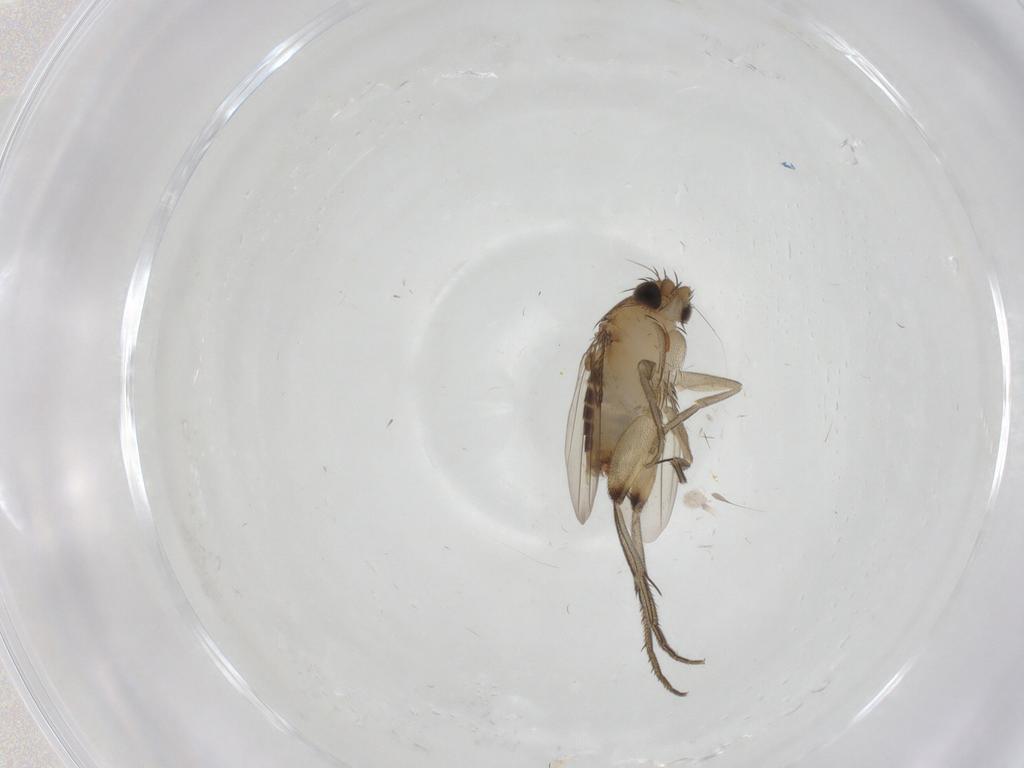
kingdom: Animalia
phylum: Arthropoda
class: Insecta
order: Diptera
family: Phoridae
